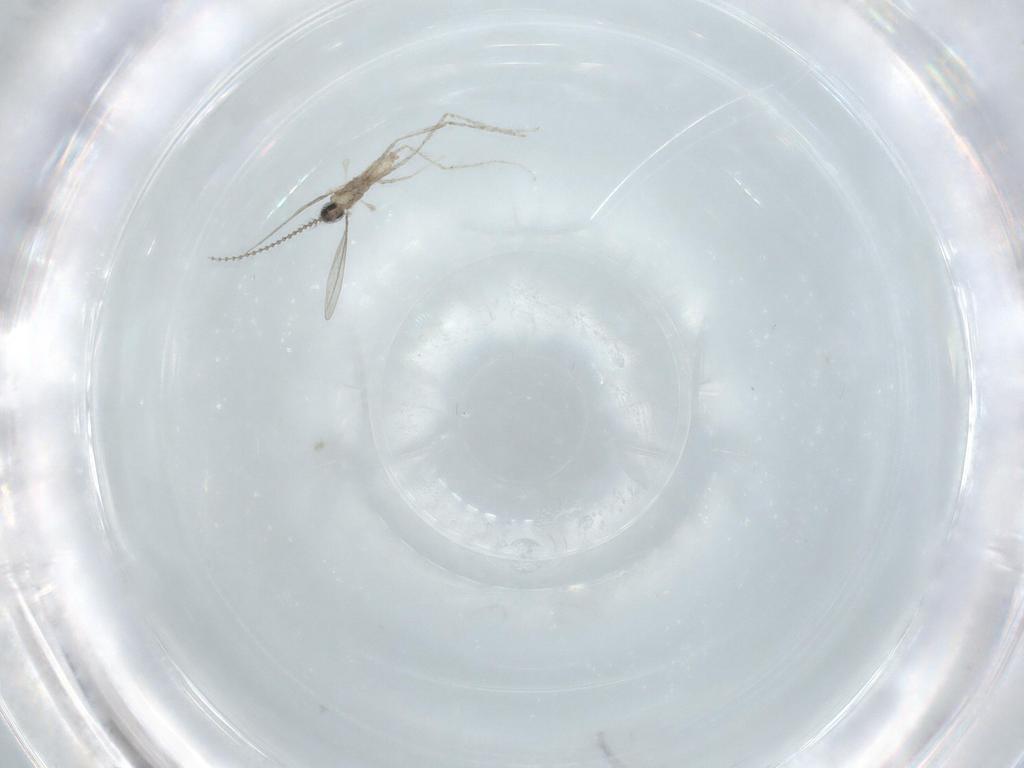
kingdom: Animalia
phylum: Arthropoda
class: Insecta
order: Diptera
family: Cecidomyiidae
